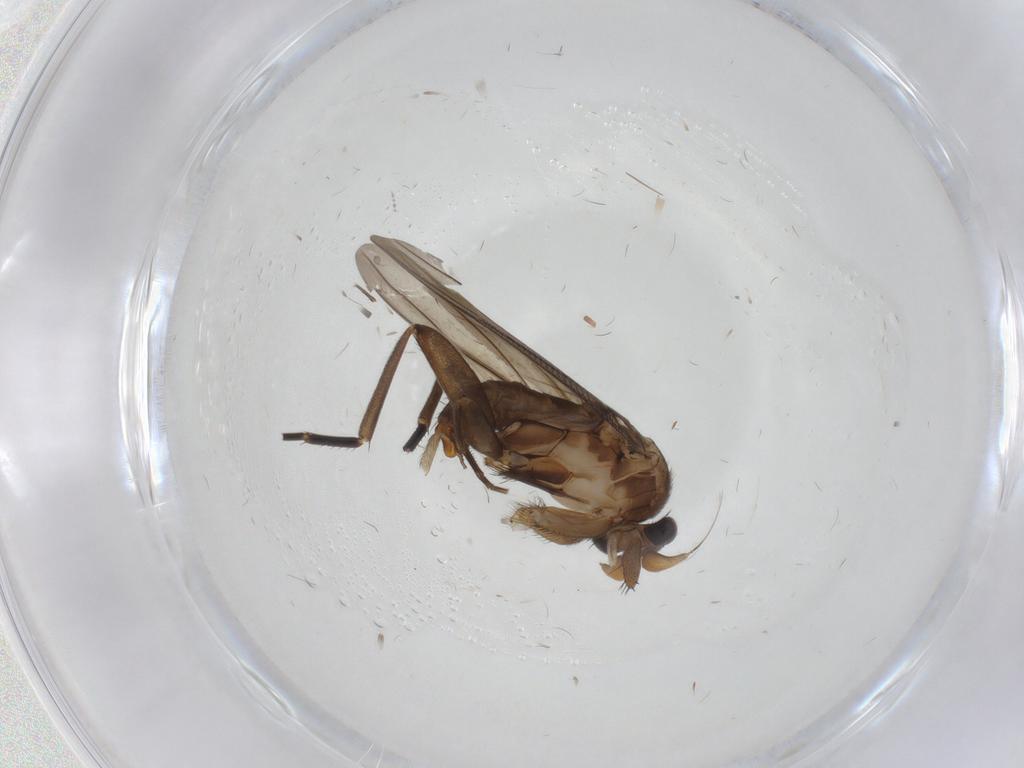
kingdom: Animalia
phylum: Arthropoda
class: Insecta
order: Diptera
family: Phoridae
